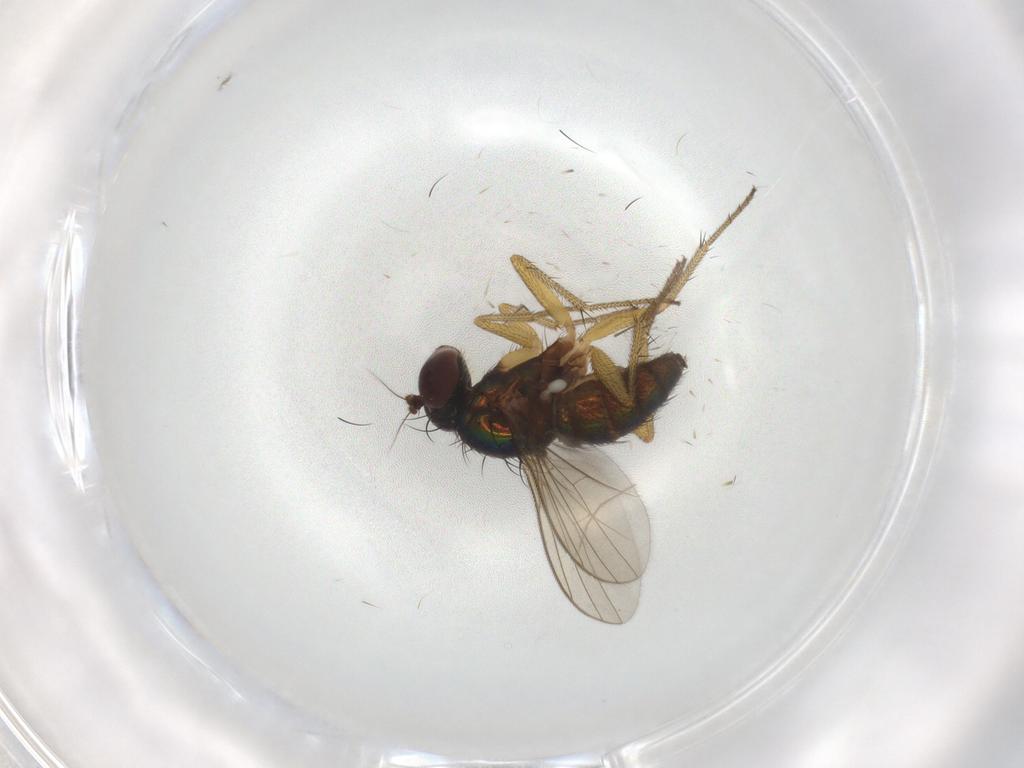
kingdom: Animalia
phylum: Arthropoda
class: Insecta
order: Diptera
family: Dolichopodidae
